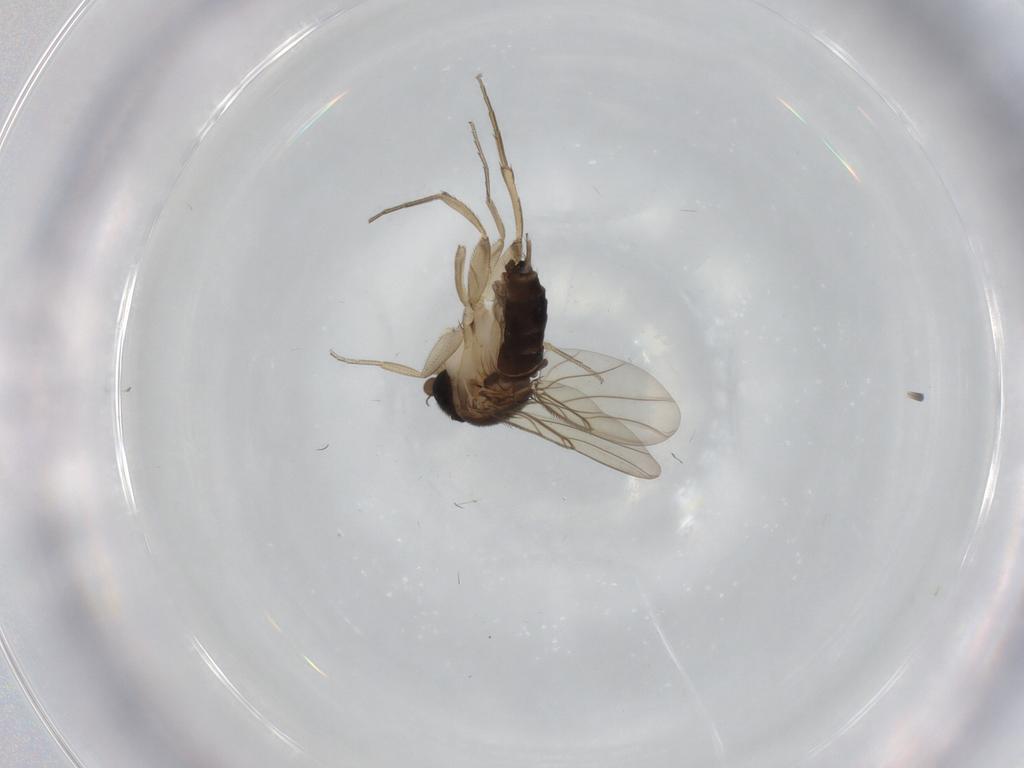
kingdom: Animalia
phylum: Arthropoda
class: Insecta
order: Diptera
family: Phoridae
